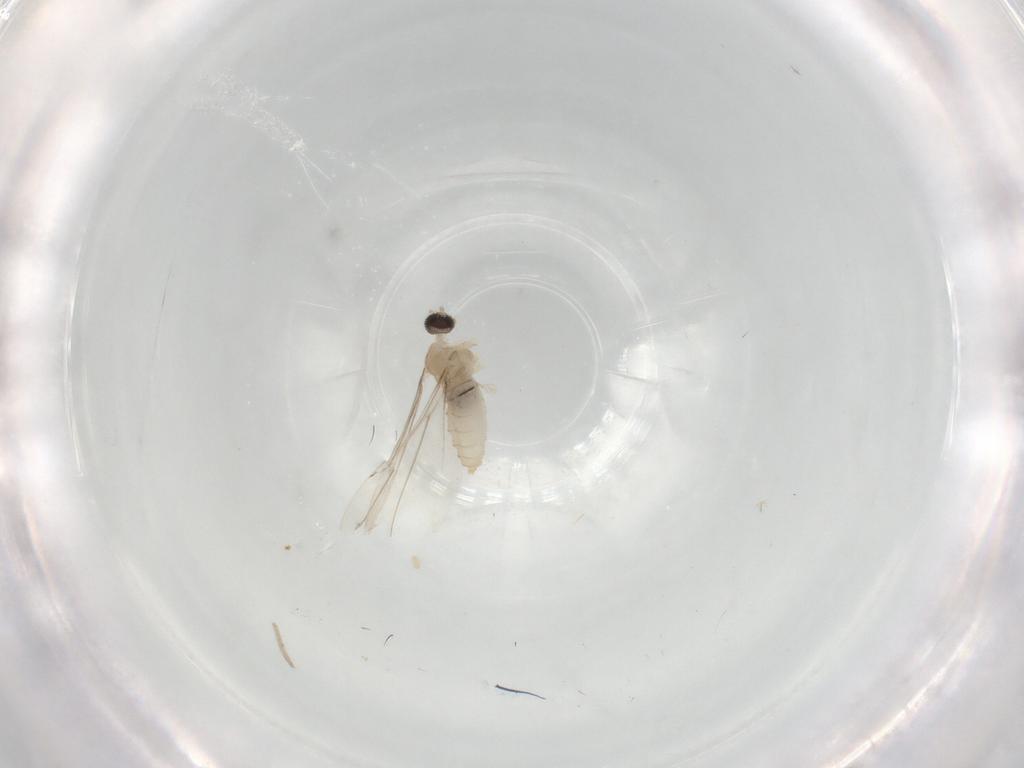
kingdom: Animalia
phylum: Arthropoda
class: Insecta
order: Diptera
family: Cecidomyiidae
